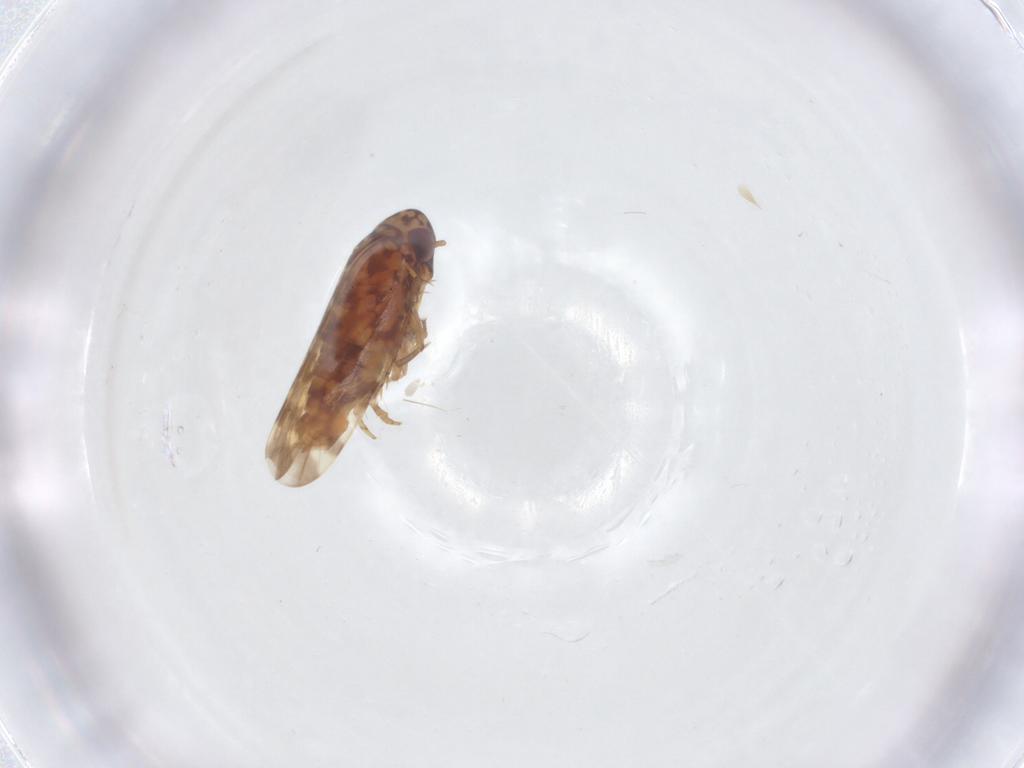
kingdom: Animalia
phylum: Arthropoda
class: Insecta
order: Hemiptera
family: Cicadellidae
